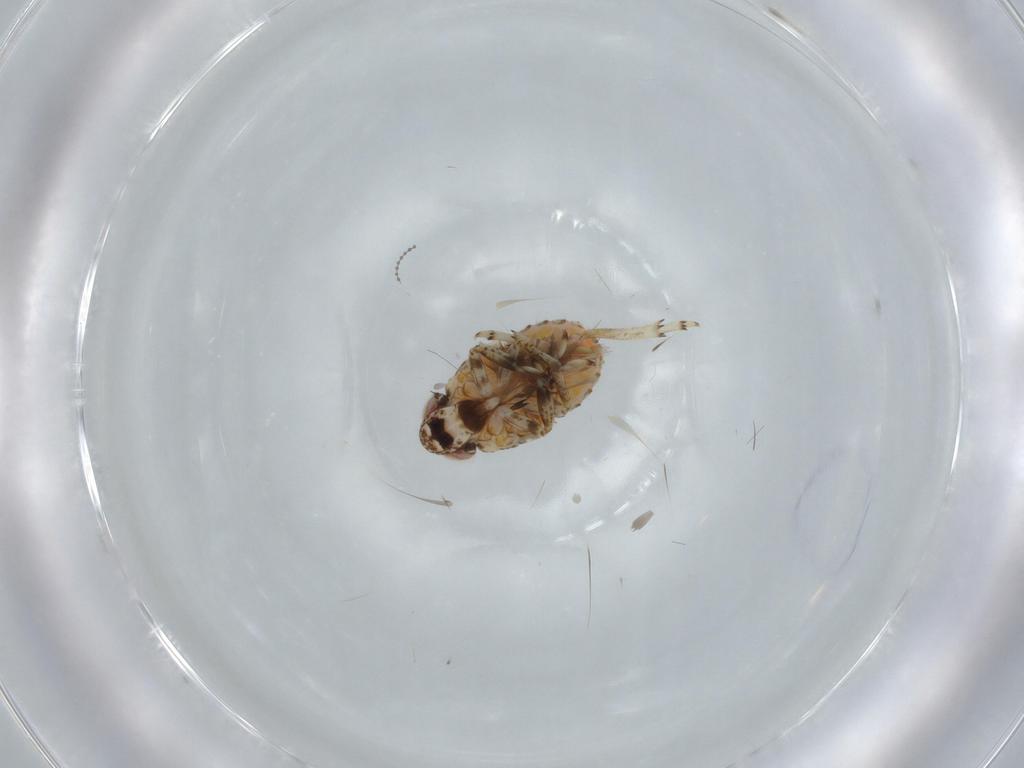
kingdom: Animalia
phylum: Arthropoda
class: Insecta
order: Hemiptera
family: Issidae
